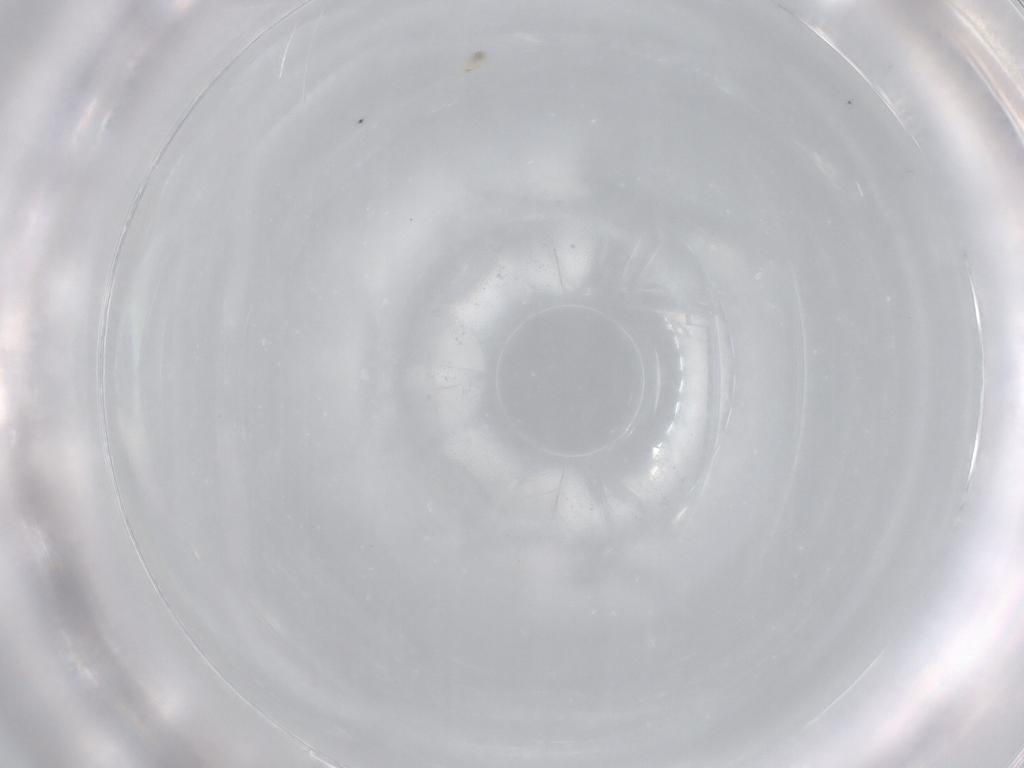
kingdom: Animalia
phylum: Arthropoda
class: Collembola
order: Symphypleona
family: Sminthurididae
